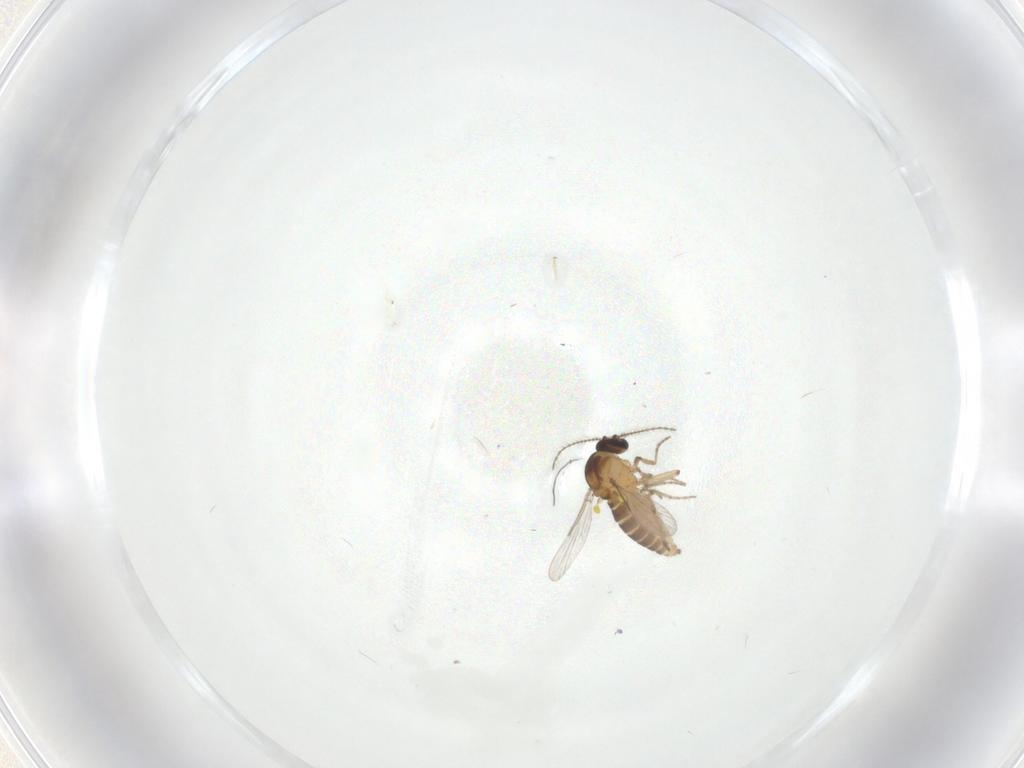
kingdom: Animalia
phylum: Arthropoda
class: Insecta
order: Diptera
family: Ceratopogonidae
